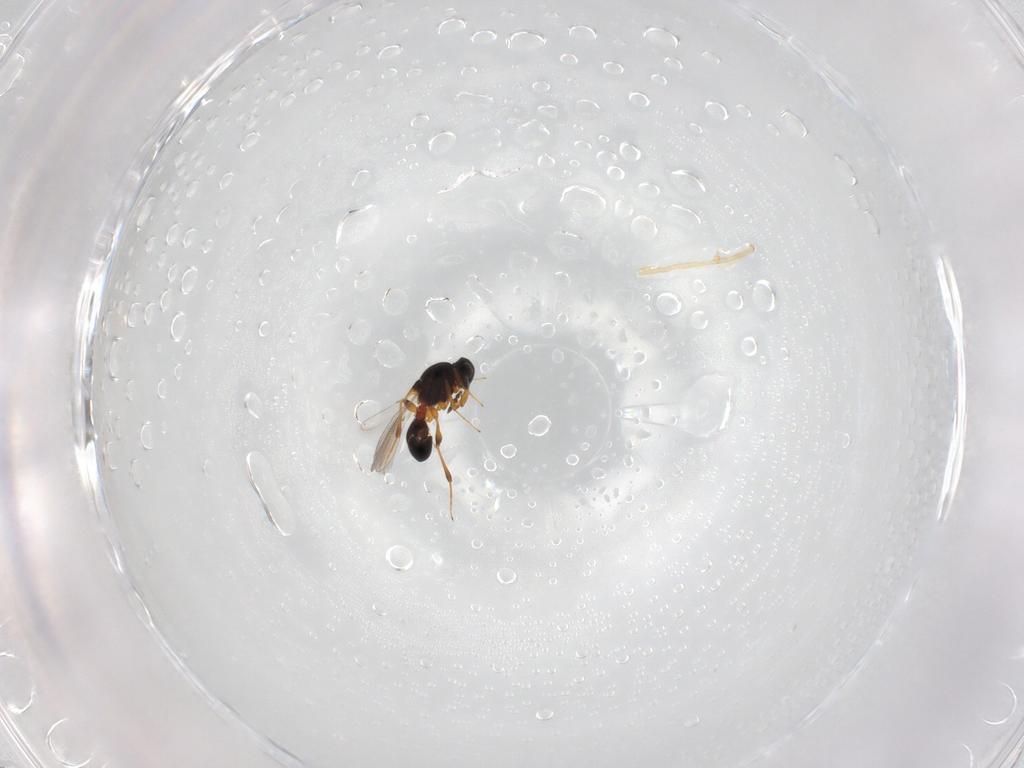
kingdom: Animalia
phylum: Arthropoda
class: Insecta
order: Hymenoptera
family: Platygastridae
